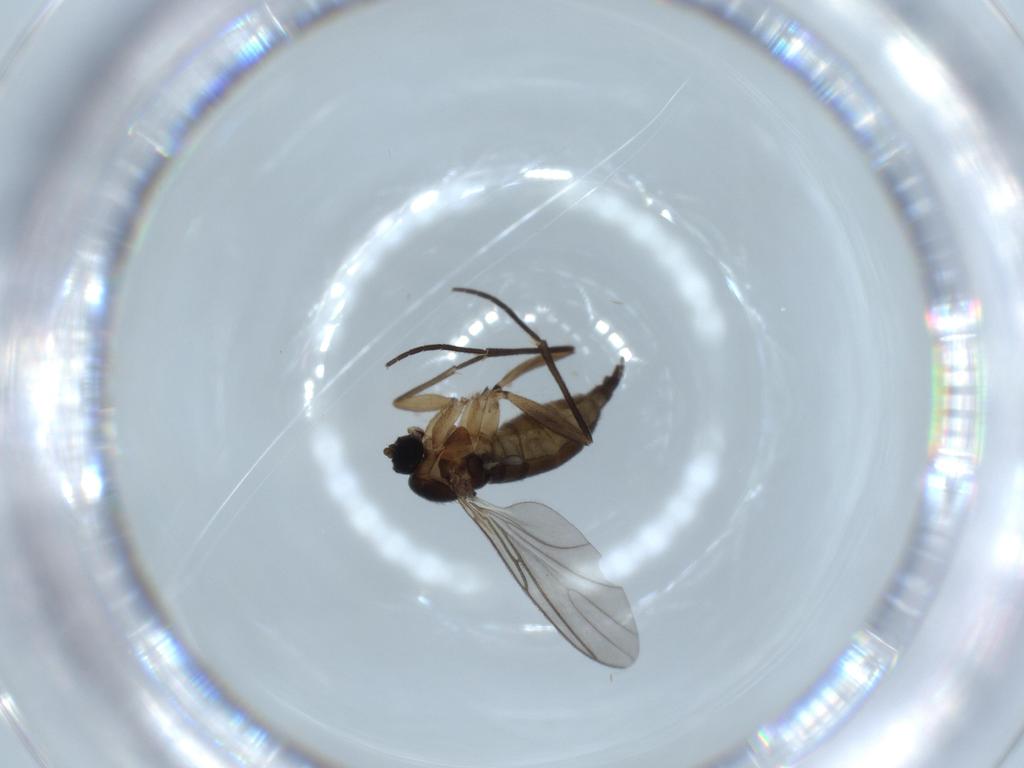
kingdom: Animalia
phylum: Arthropoda
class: Insecta
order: Diptera
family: Sciaridae
